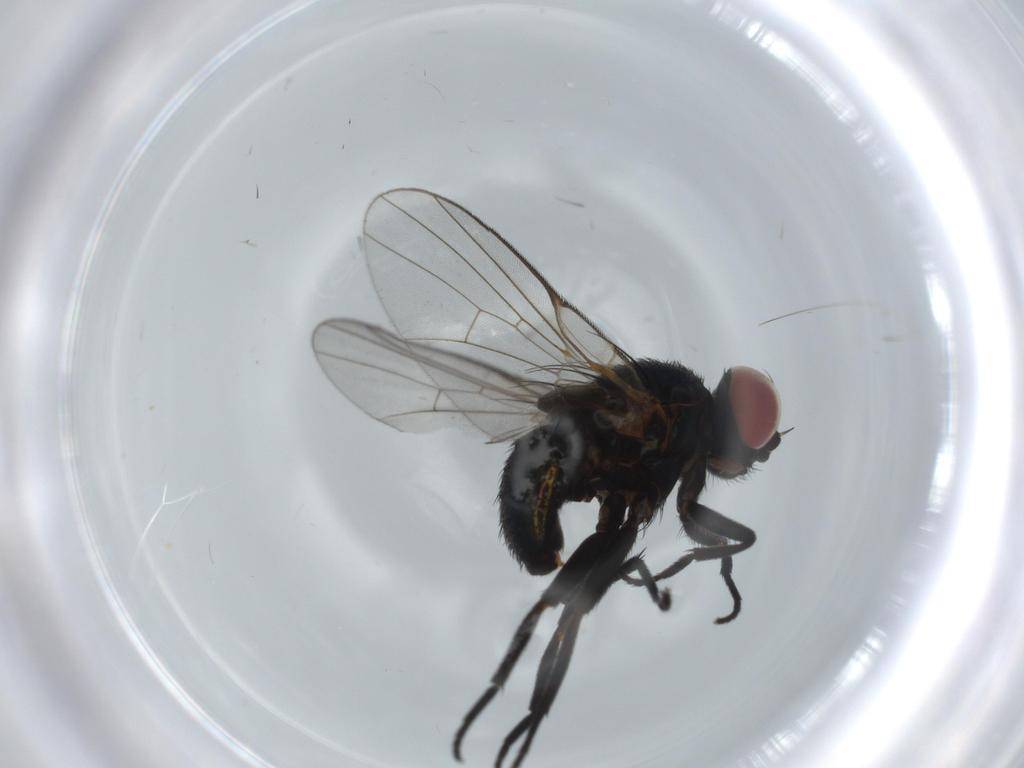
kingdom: Animalia
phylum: Arthropoda
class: Insecta
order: Diptera
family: Agromyzidae
